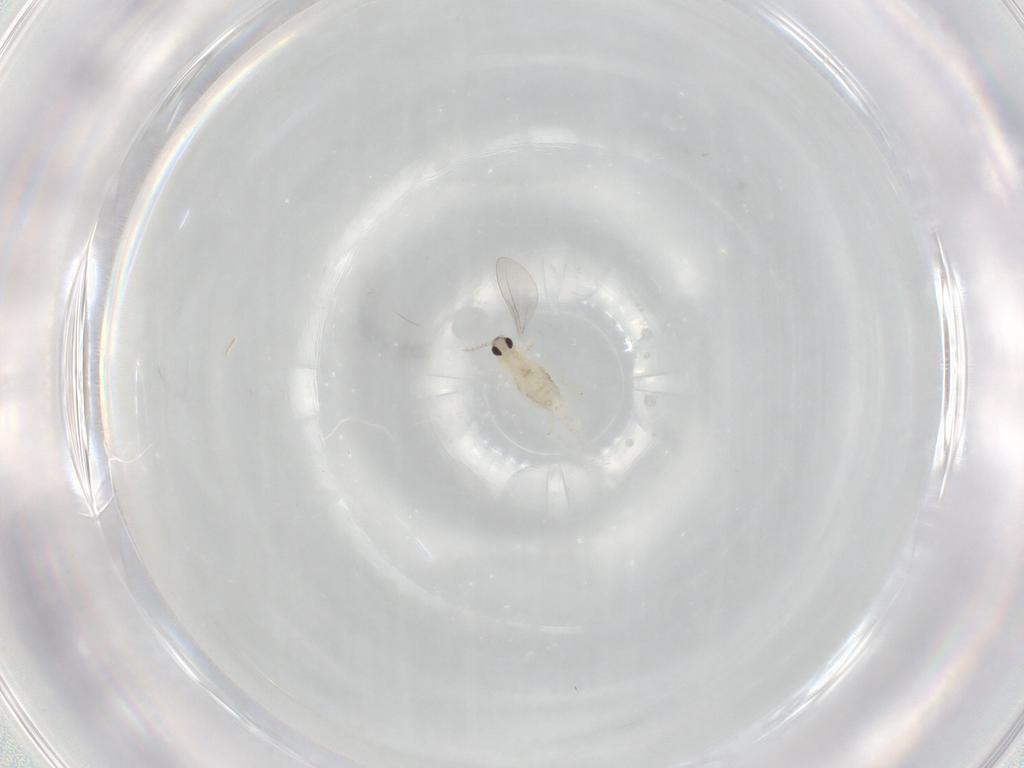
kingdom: Animalia
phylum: Arthropoda
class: Insecta
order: Diptera
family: Cecidomyiidae
